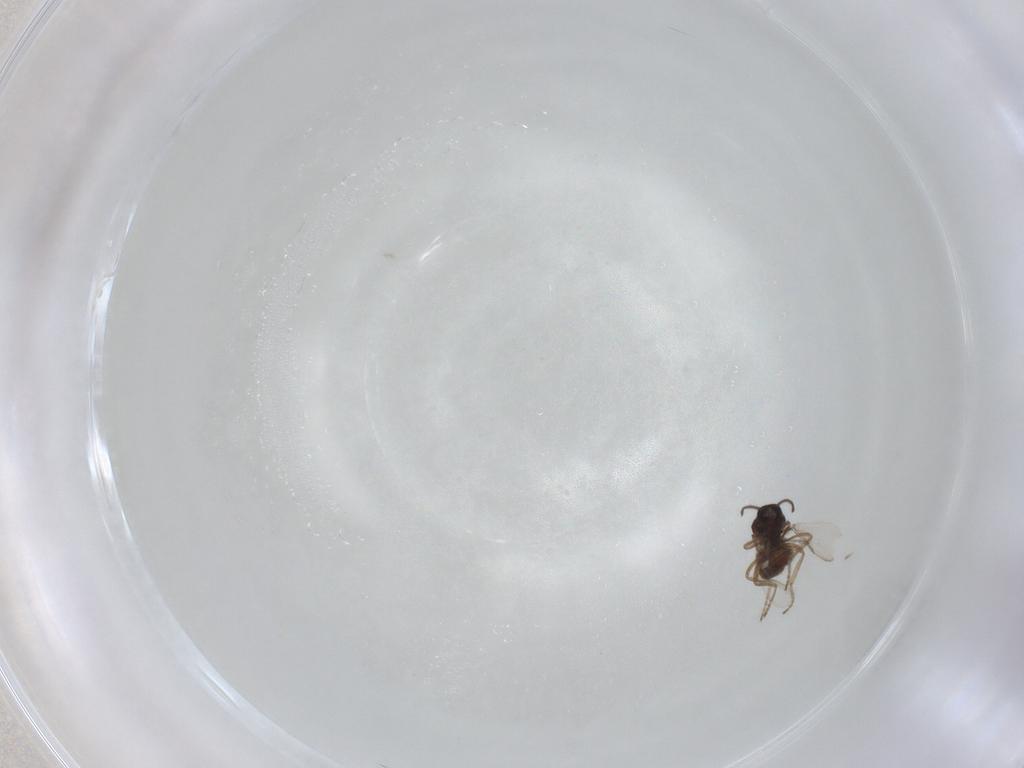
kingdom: Animalia
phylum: Arthropoda
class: Insecta
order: Diptera
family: Ceratopogonidae
